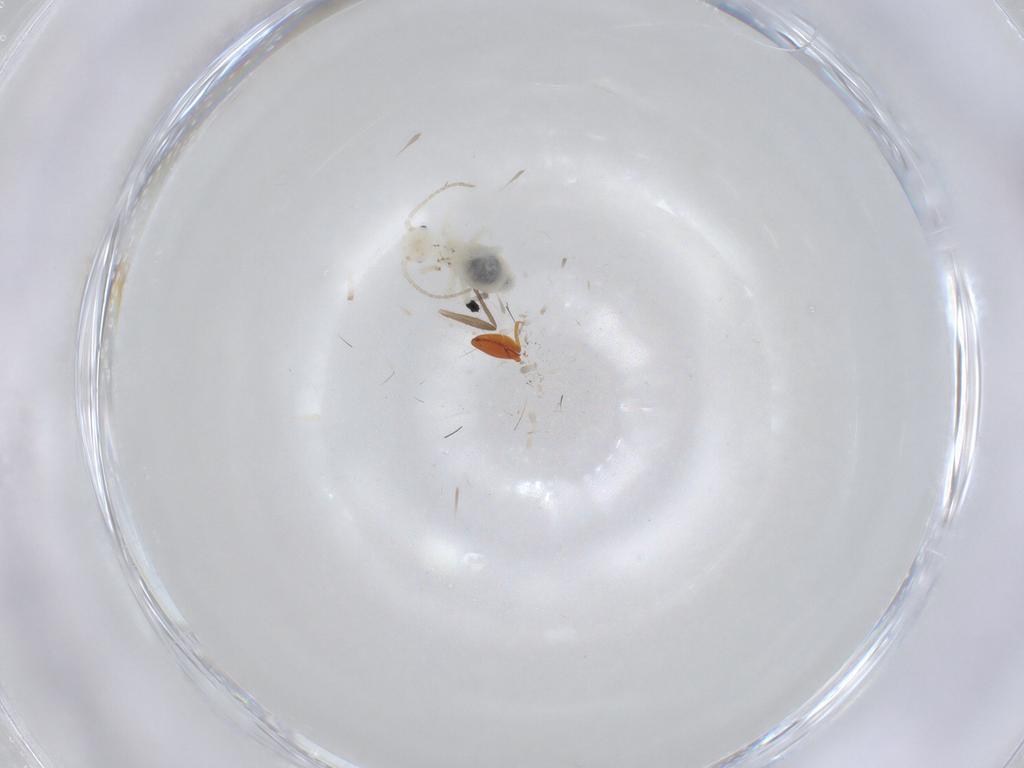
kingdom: Animalia
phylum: Arthropoda
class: Insecta
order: Psocodea
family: Philotarsidae
